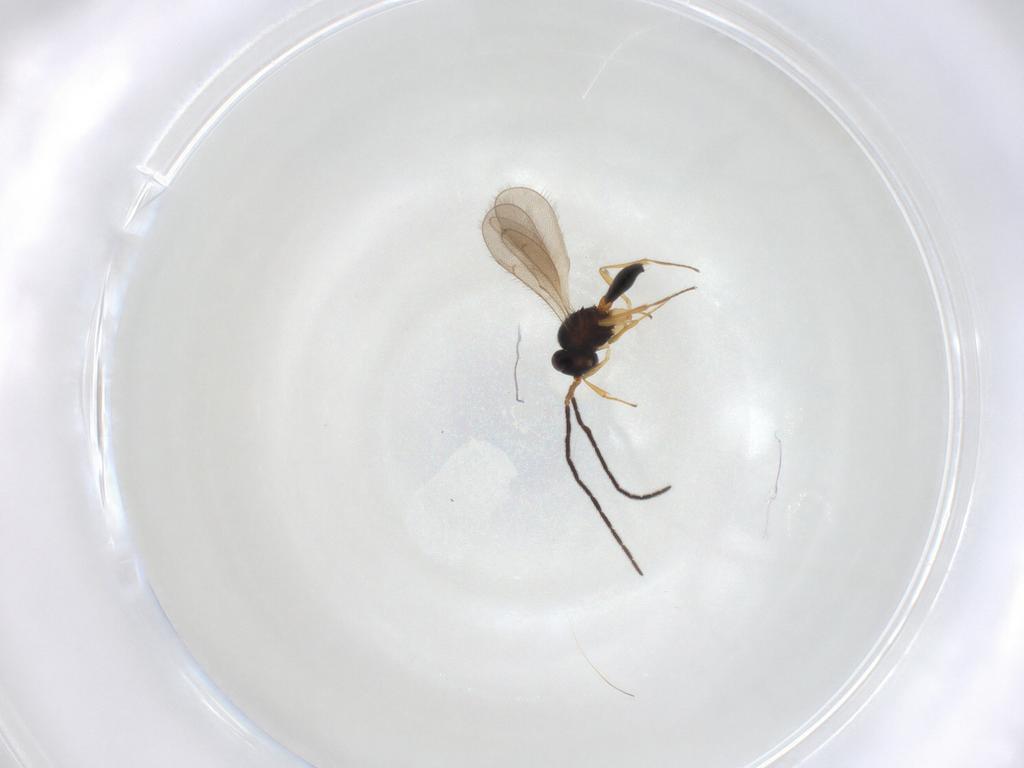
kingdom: Animalia
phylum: Arthropoda
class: Insecta
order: Hymenoptera
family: Scelionidae
